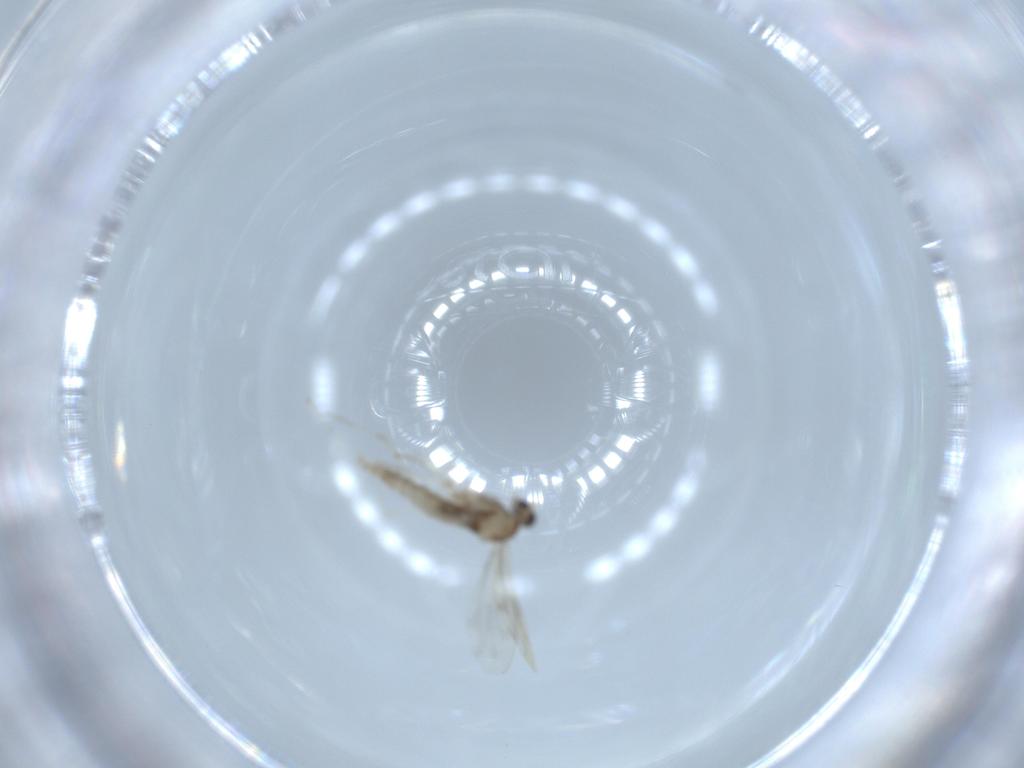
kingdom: Animalia
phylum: Arthropoda
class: Insecta
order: Diptera
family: Cecidomyiidae
